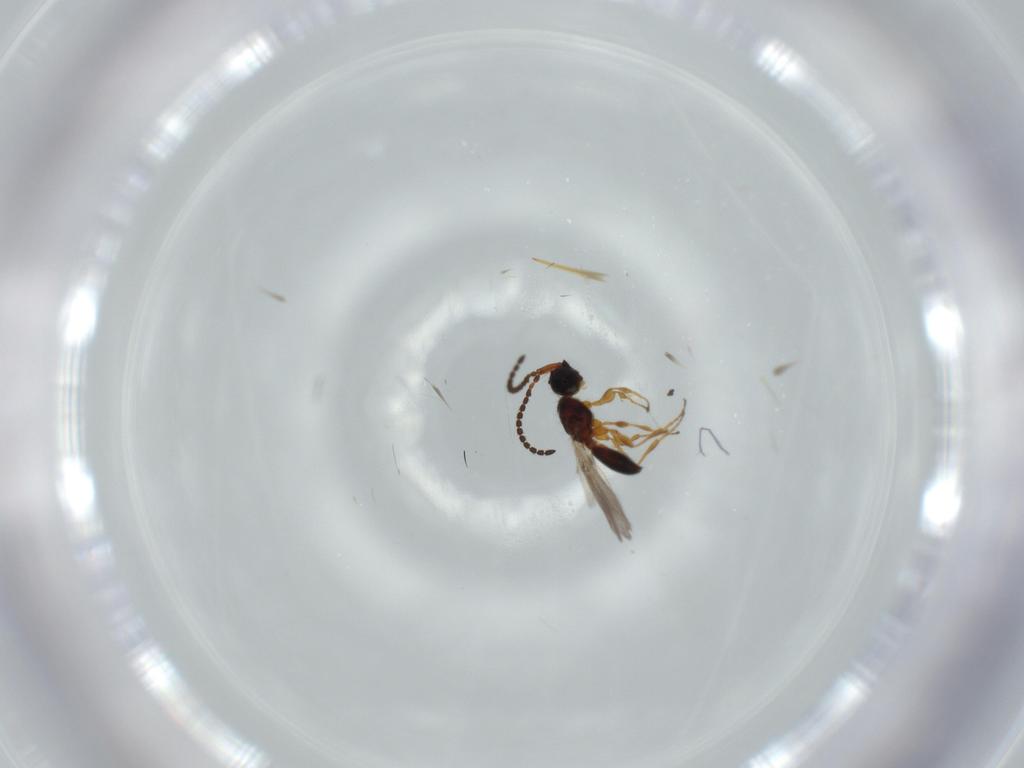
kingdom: Animalia
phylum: Arthropoda
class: Insecta
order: Hymenoptera
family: Diapriidae
